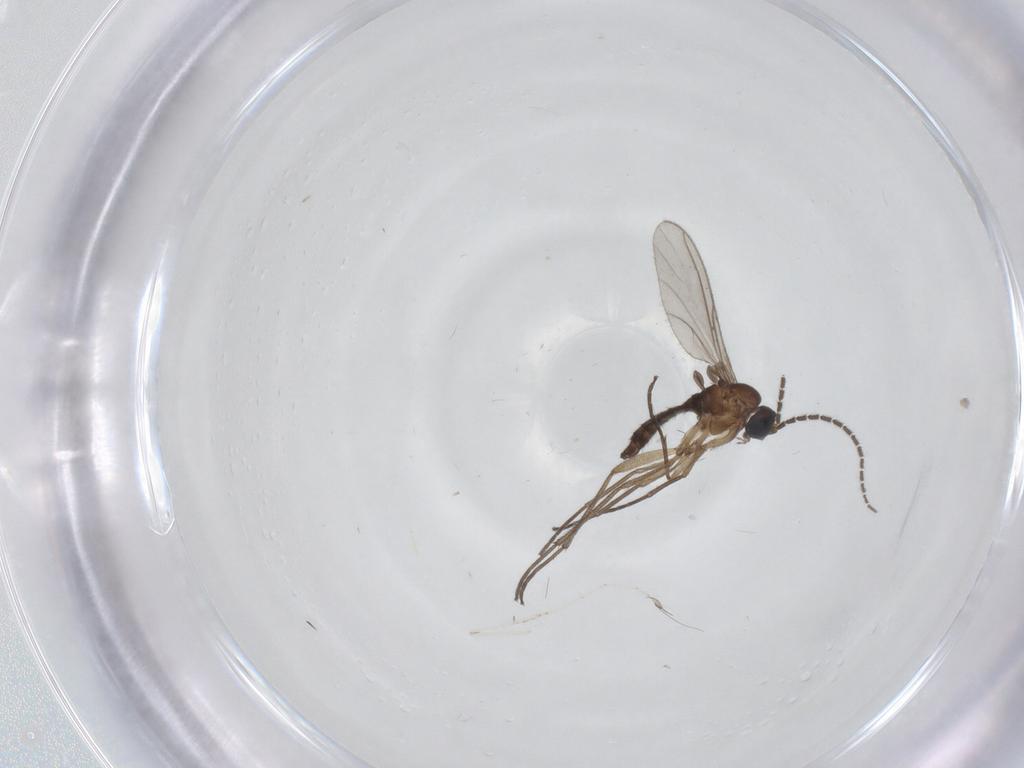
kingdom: Animalia
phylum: Arthropoda
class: Insecta
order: Diptera
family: Sciaridae
